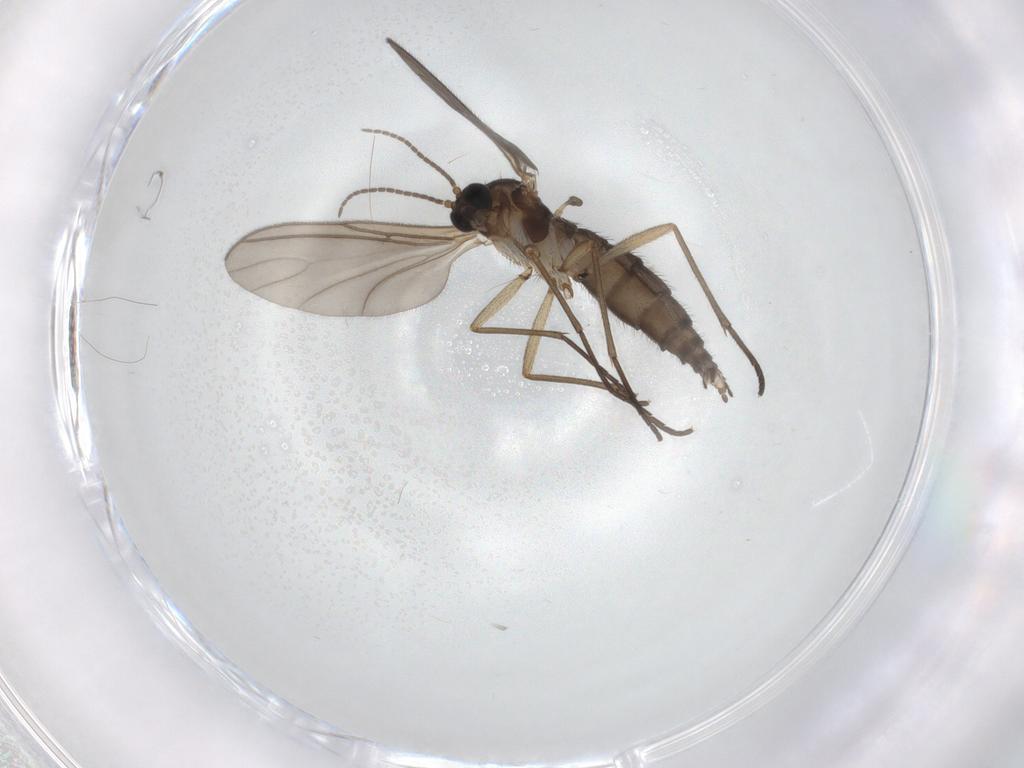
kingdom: Animalia
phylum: Arthropoda
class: Insecta
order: Diptera
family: Sciaridae
